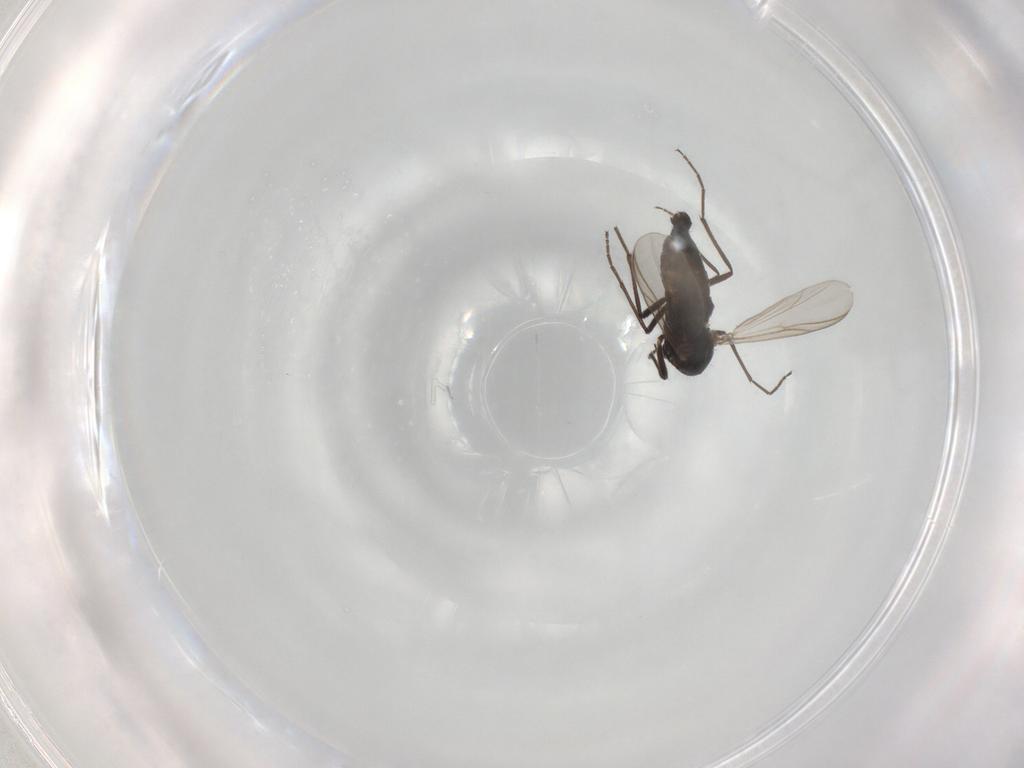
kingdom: Animalia
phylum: Arthropoda
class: Insecta
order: Diptera
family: Chironomidae
